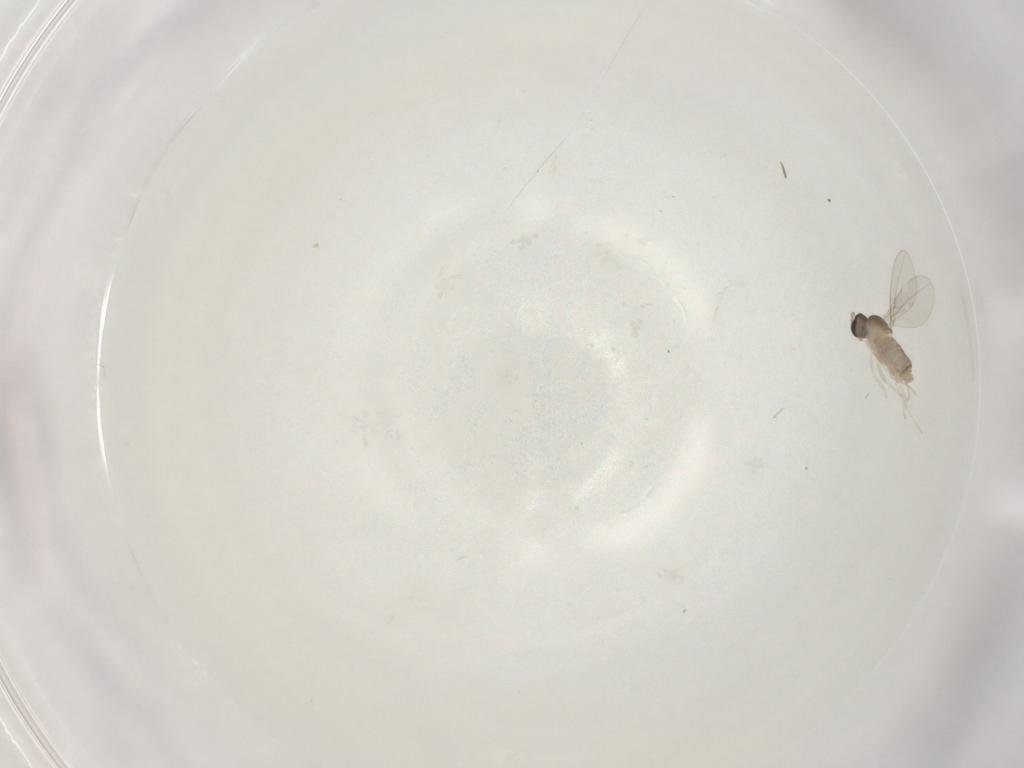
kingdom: Animalia
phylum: Arthropoda
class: Insecta
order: Diptera
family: Cecidomyiidae
